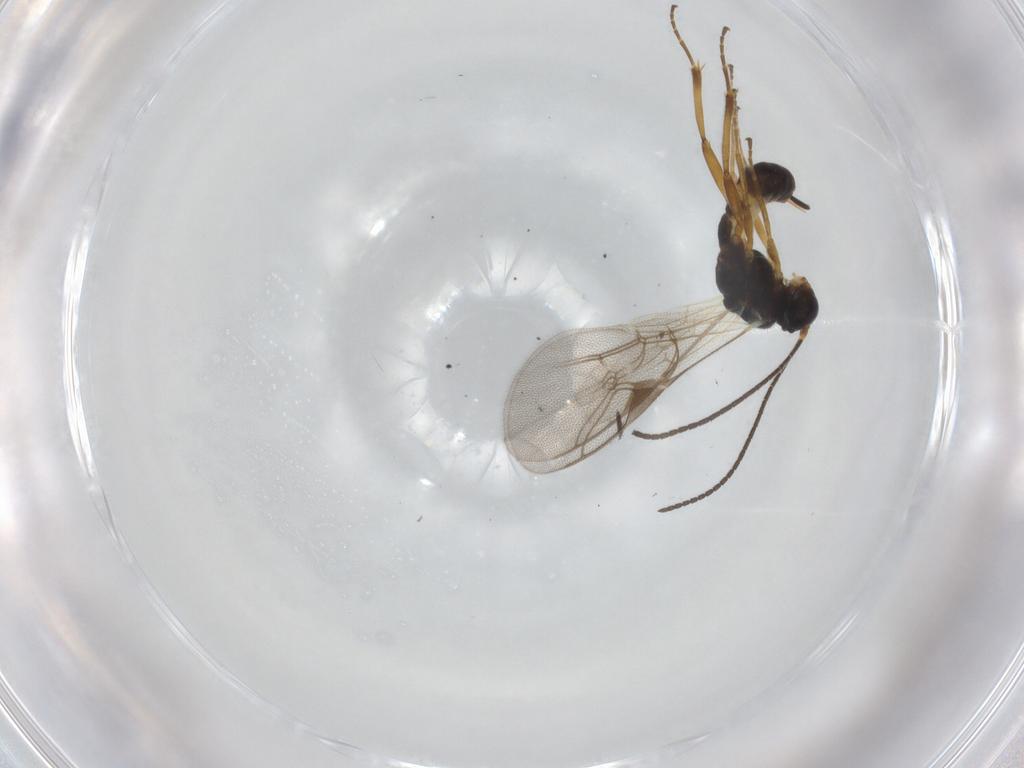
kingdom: Animalia
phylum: Arthropoda
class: Insecta
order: Hymenoptera
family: Ichneumonidae
